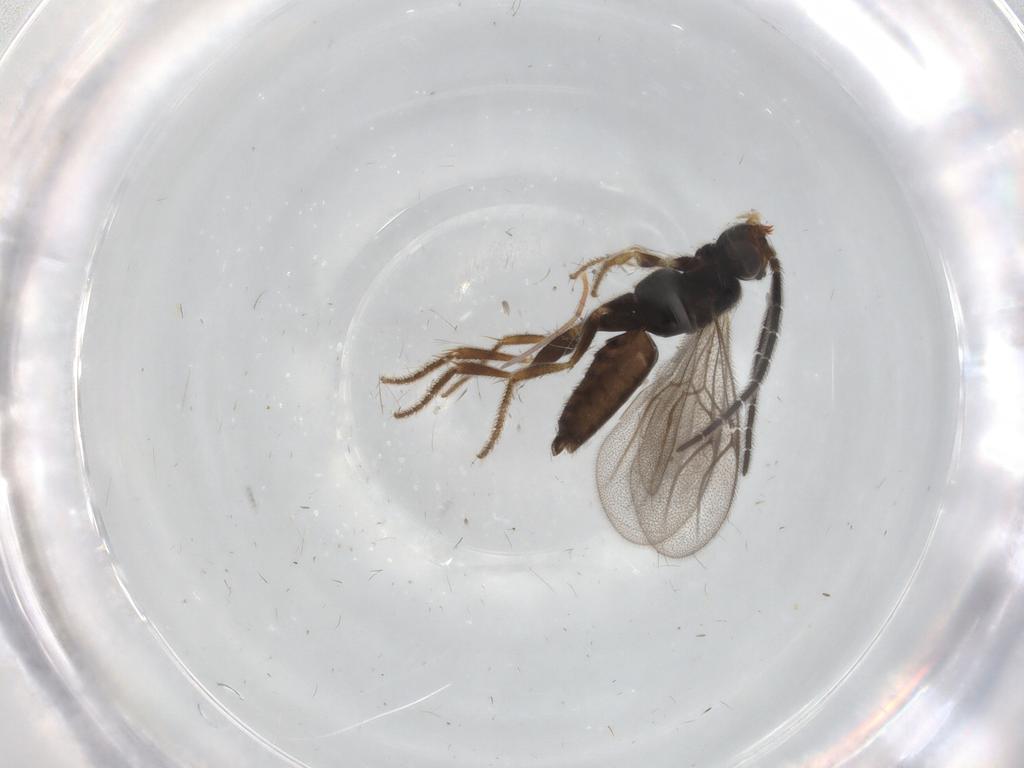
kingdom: Animalia
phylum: Arthropoda
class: Insecta
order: Hymenoptera
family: Dryinidae
